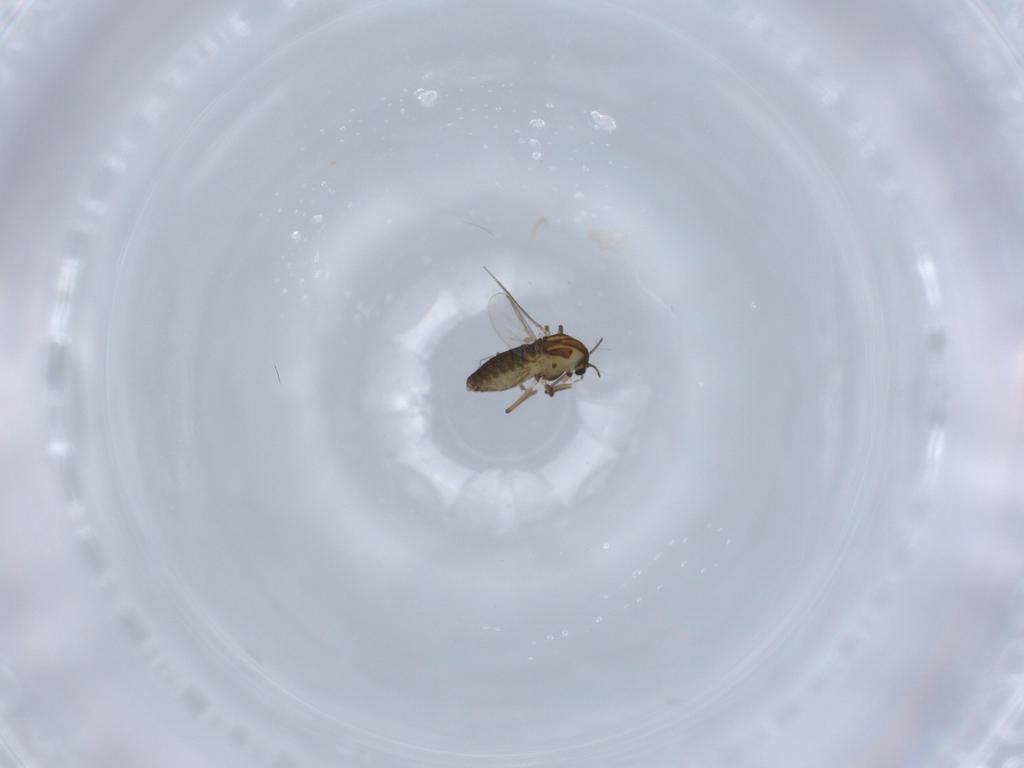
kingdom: Animalia
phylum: Arthropoda
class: Insecta
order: Diptera
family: Chironomidae
